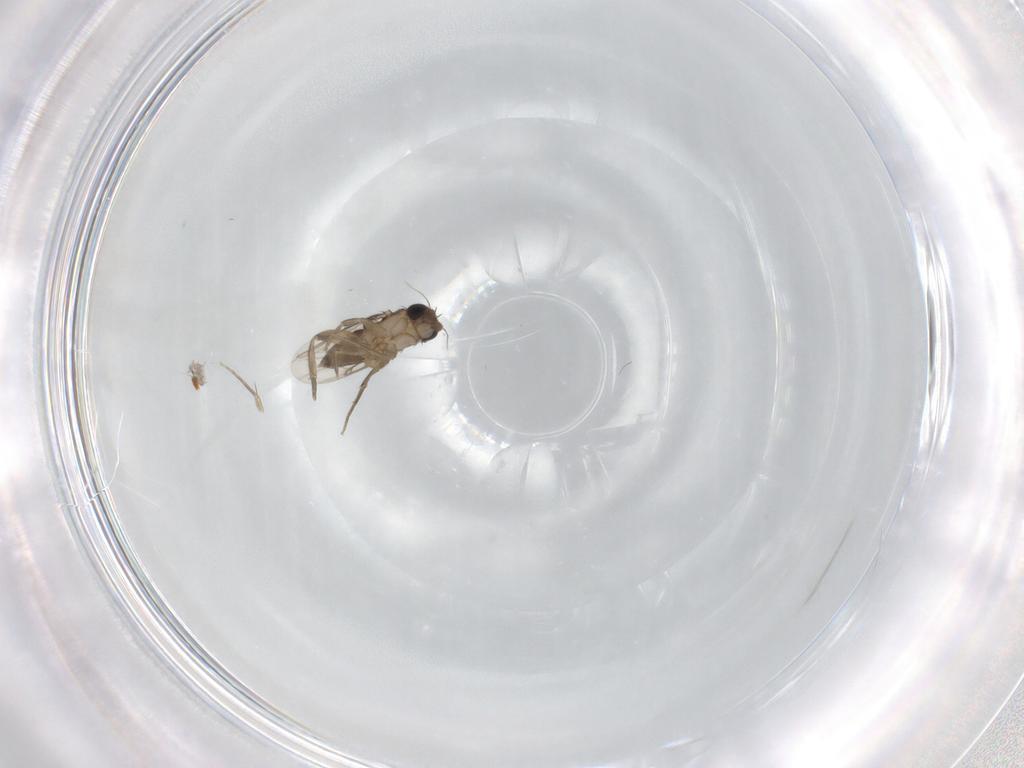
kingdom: Animalia
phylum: Arthropoda
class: Insecta
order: Diptera
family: Phoridae
